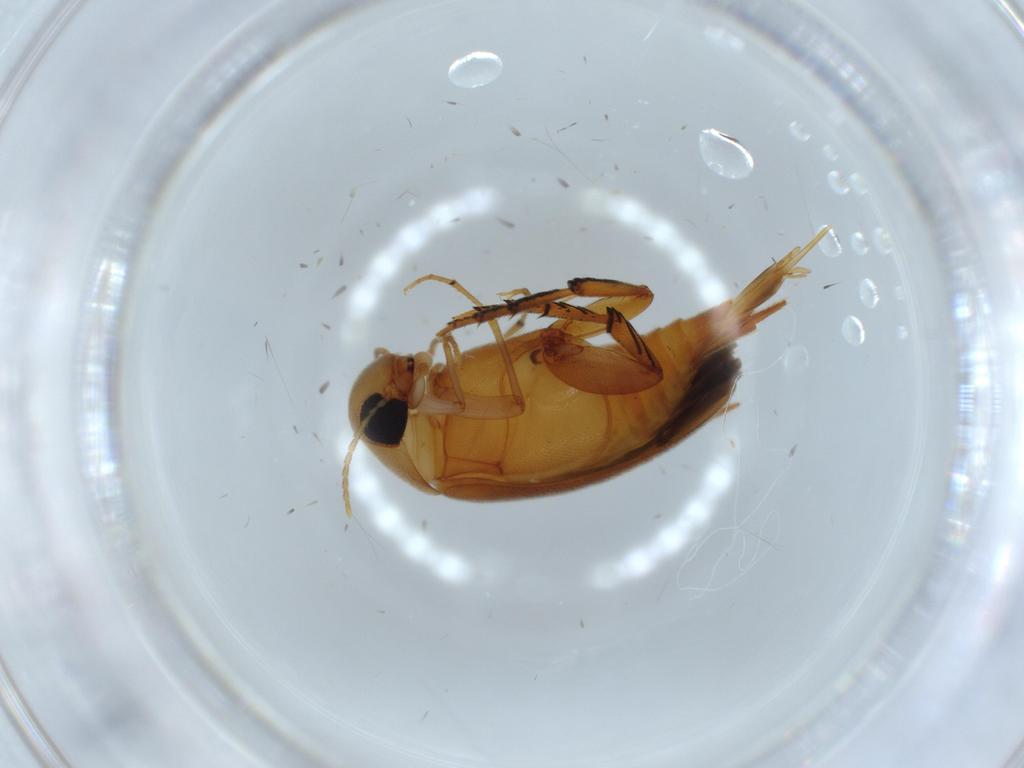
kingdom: Animalia
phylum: Arthropoda
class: Insecta
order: Coleoptera
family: Mordellidae
